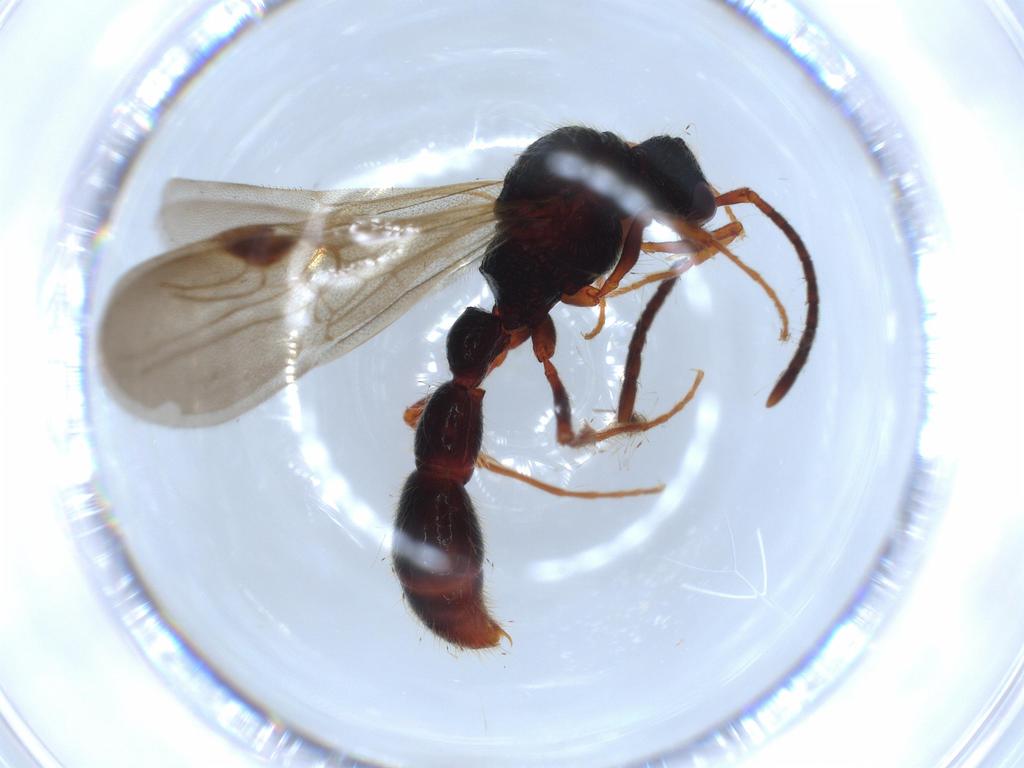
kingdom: Animalia
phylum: Arthropoda
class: Insecta
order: Hymenoptera
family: Formicidae
